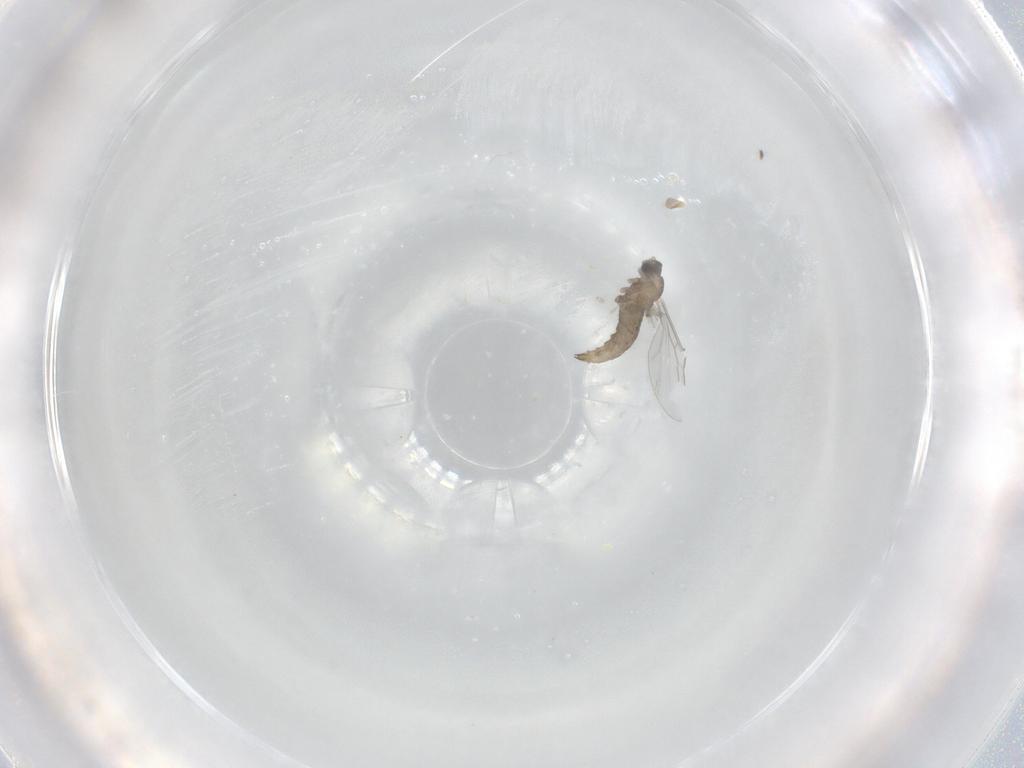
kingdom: Animalia
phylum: Arthropoda
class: Insecta
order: Diptera
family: Cecidomyiidae
